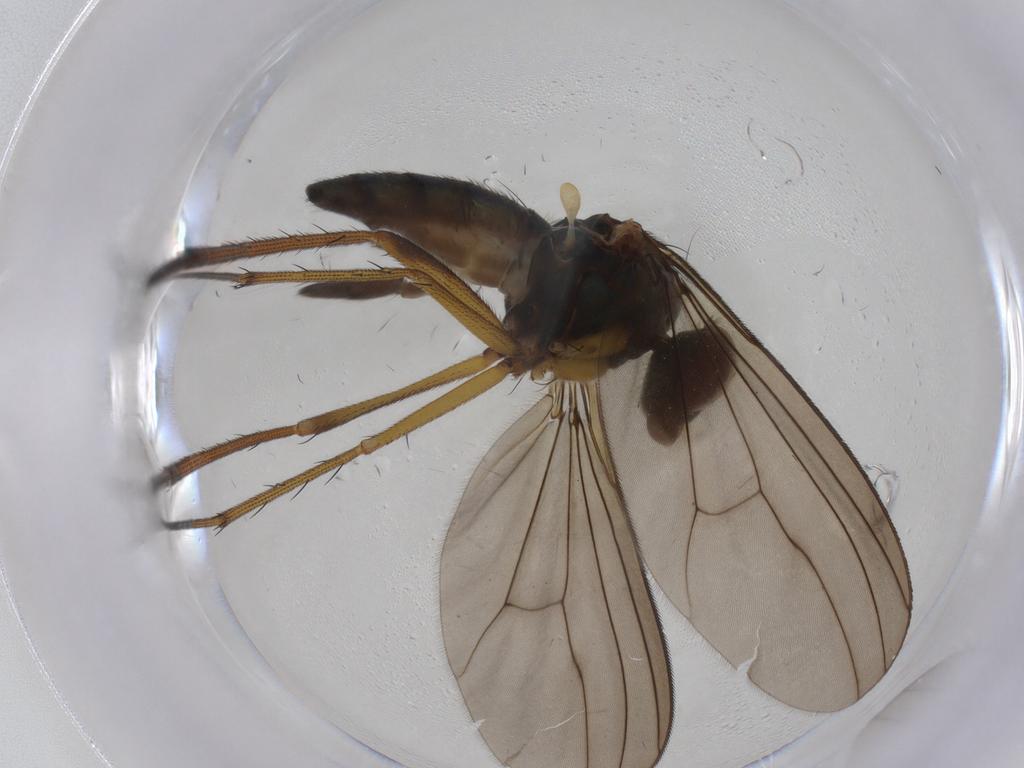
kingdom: Animalia
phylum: Arthropoda
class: Insecta
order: Diptera
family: Dolichopodidae
